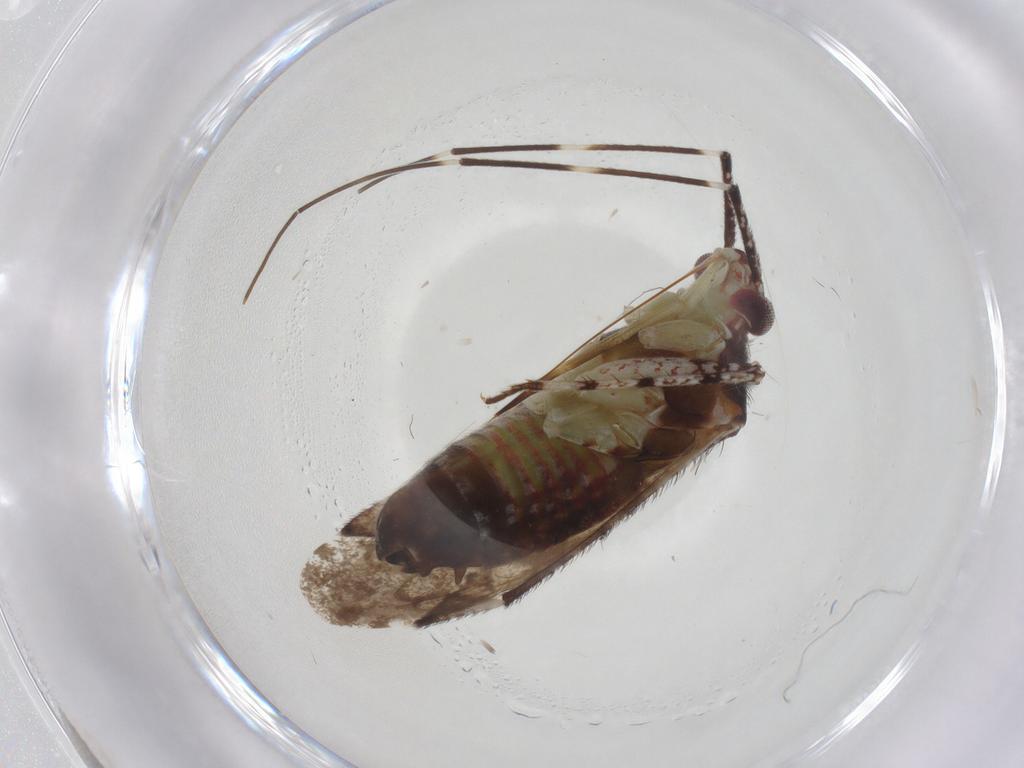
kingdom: Animalia
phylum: Arthropoda
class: Insecta
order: Hemiptera
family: Miridae
